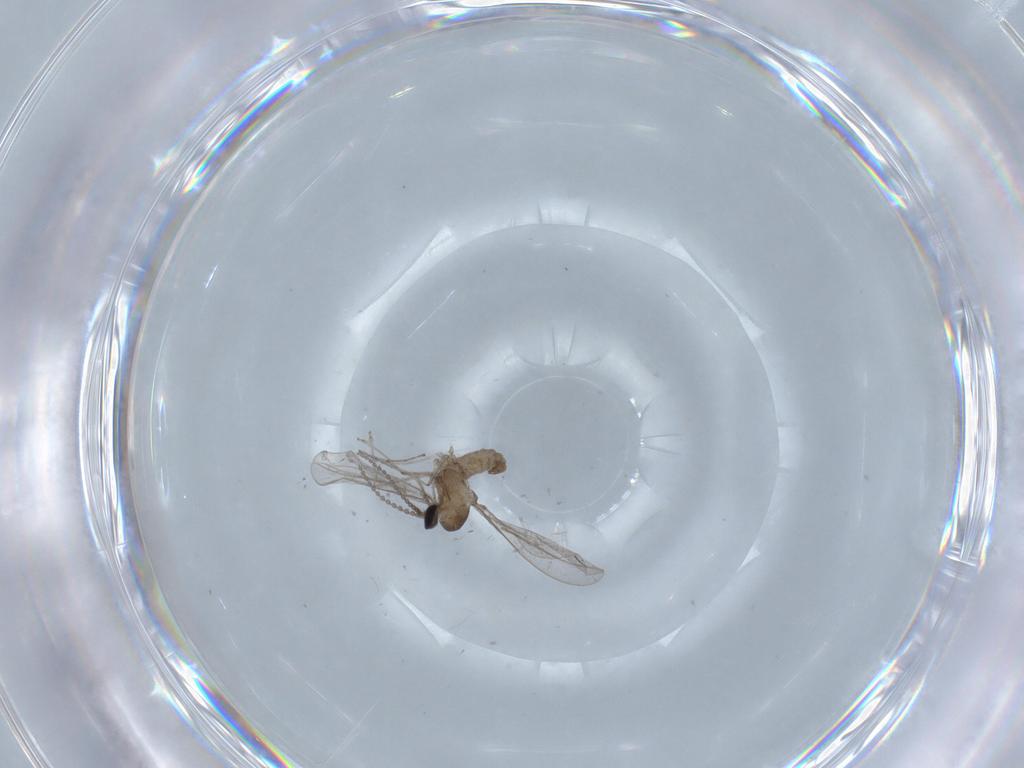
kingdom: Animalia
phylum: Arthropoda
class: Insecta
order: Diptera
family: Cecidomyiidae
